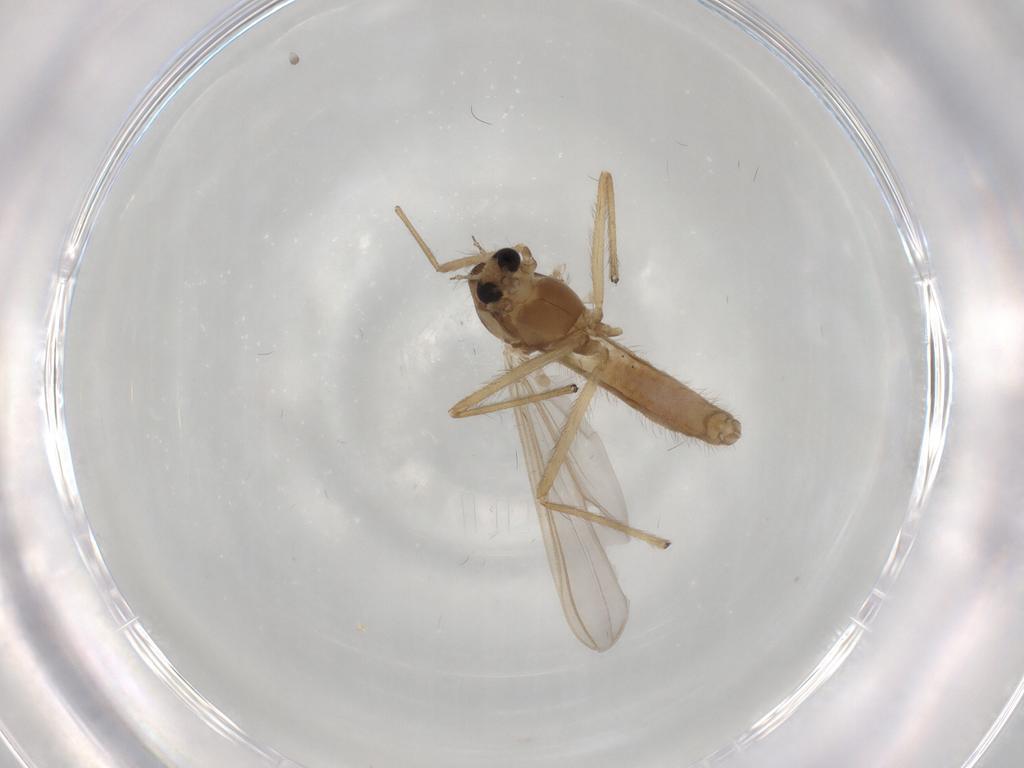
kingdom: Animalia
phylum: Arthropoda
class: Insecta
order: Diptera
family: Chironomidae
